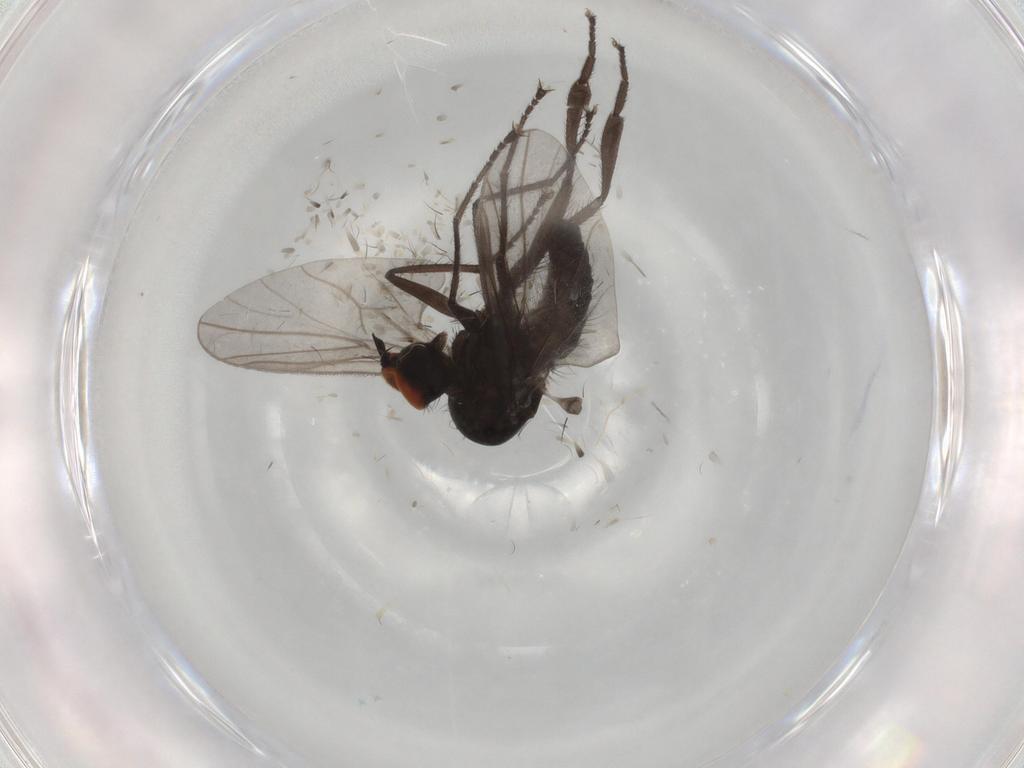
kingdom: Animalia
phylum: Arthropoda
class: Insecta
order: Diptera
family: Hybotidae
